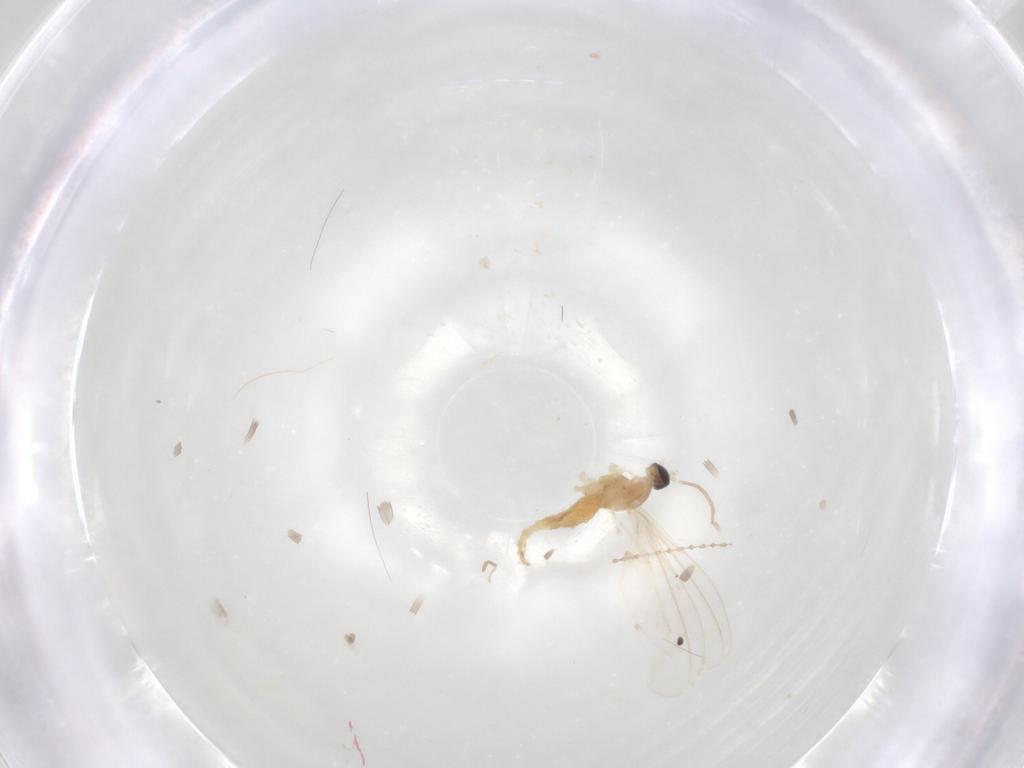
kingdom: Animalia
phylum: Arthropoda
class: Insecta
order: Diptera
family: Cecidomyiidae
